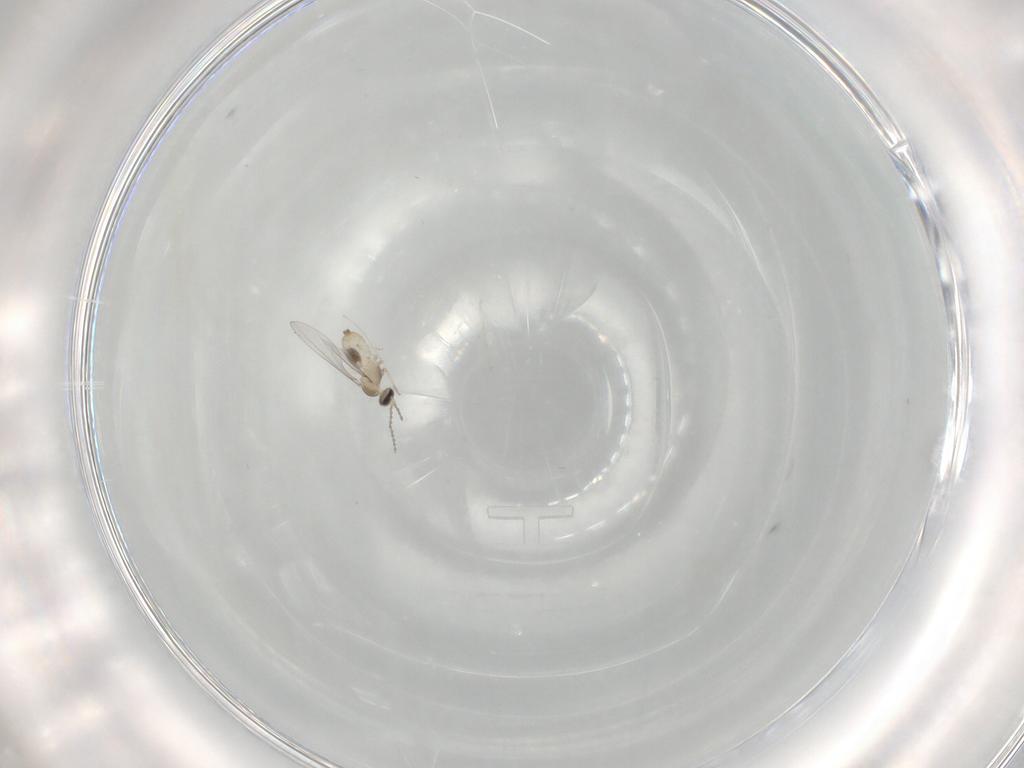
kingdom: Animalia
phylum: Arthropoda
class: Insecta
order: Diptera
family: Cecidomyiidae
